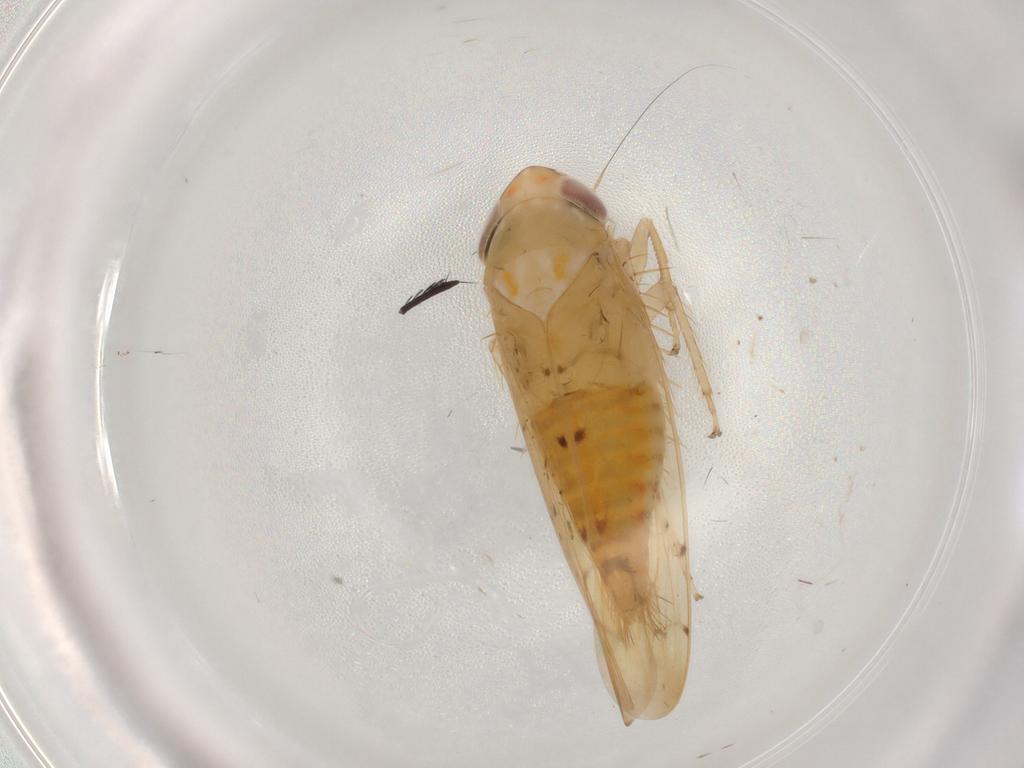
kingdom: Animalia
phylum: Arthropoda
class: Insecta
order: Hemiptera
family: Cicadellidae
